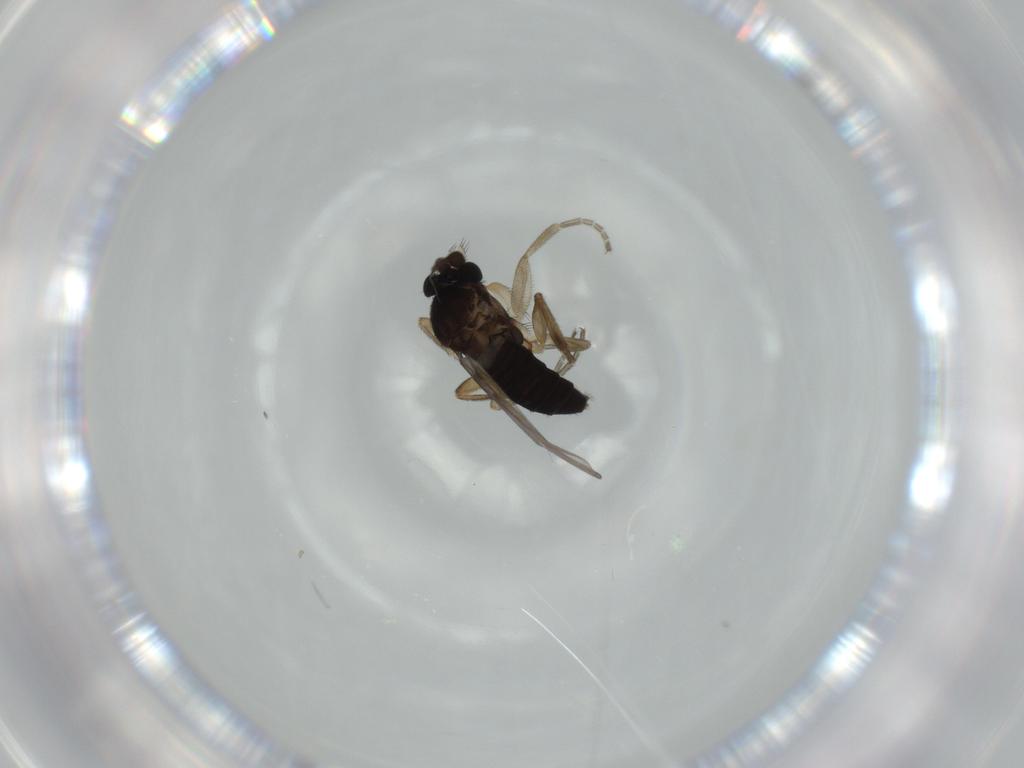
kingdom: Animalia
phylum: Arthropoda
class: Insecta
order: Diptera
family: Phoridae
